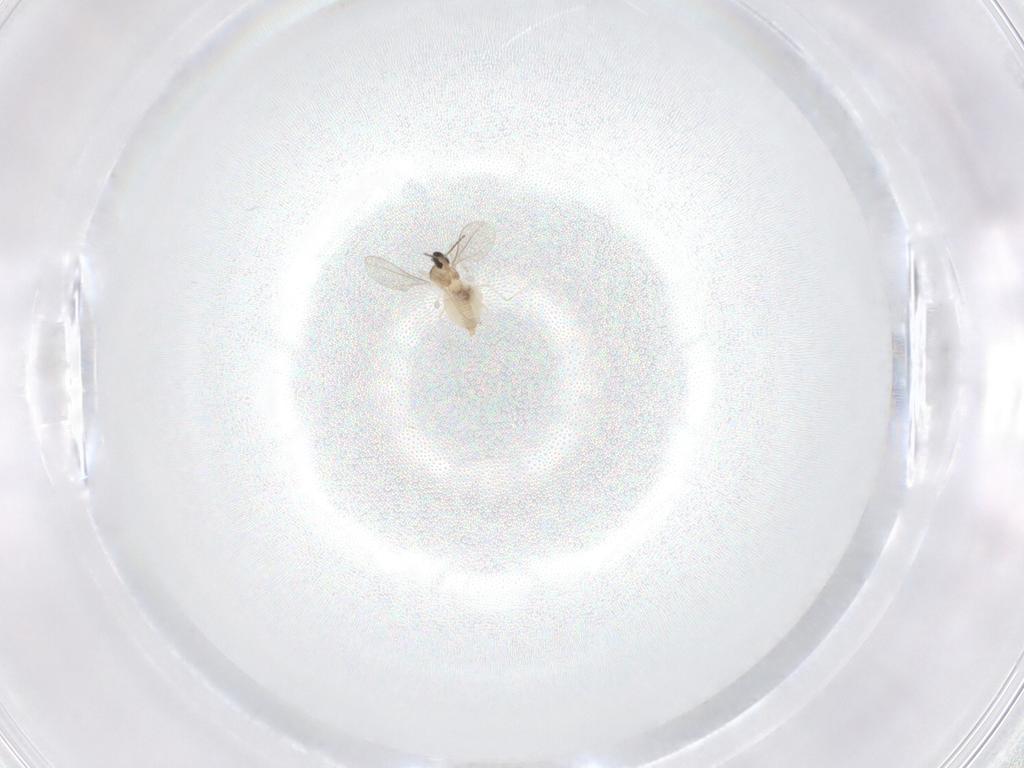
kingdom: Animalia
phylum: Arthropoda
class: Insecta
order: Diptera
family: Cecidomyiidae
